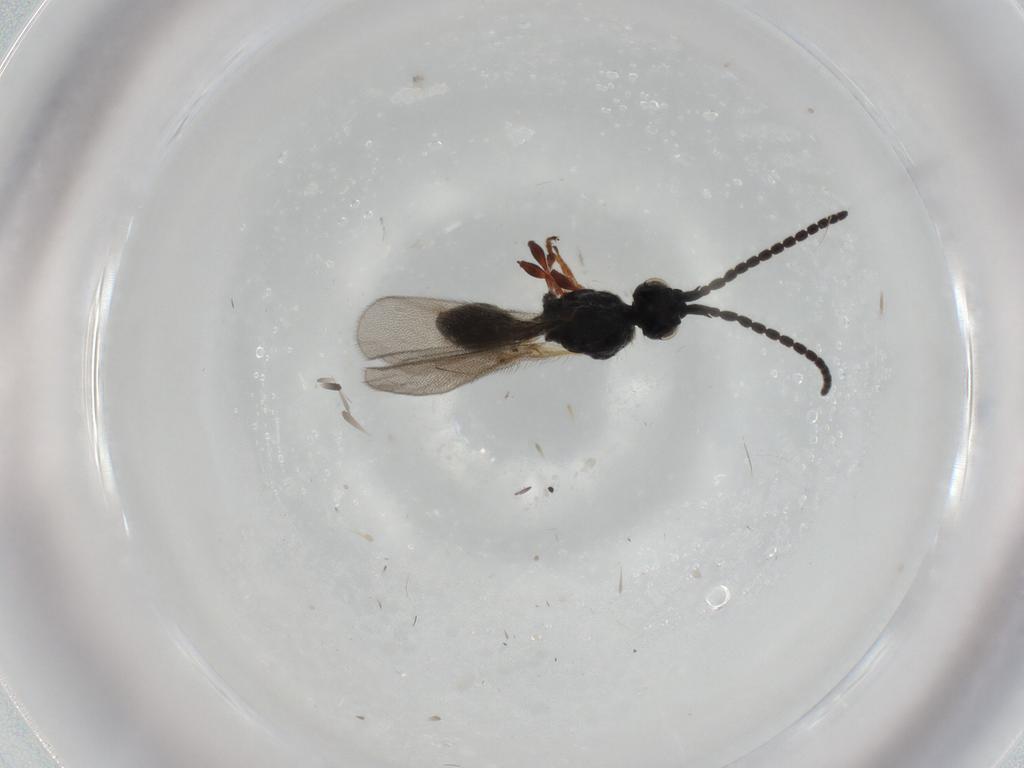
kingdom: Animalia
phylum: Arthropoda
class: Insecta
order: Hymenoptera
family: Diapriidae
